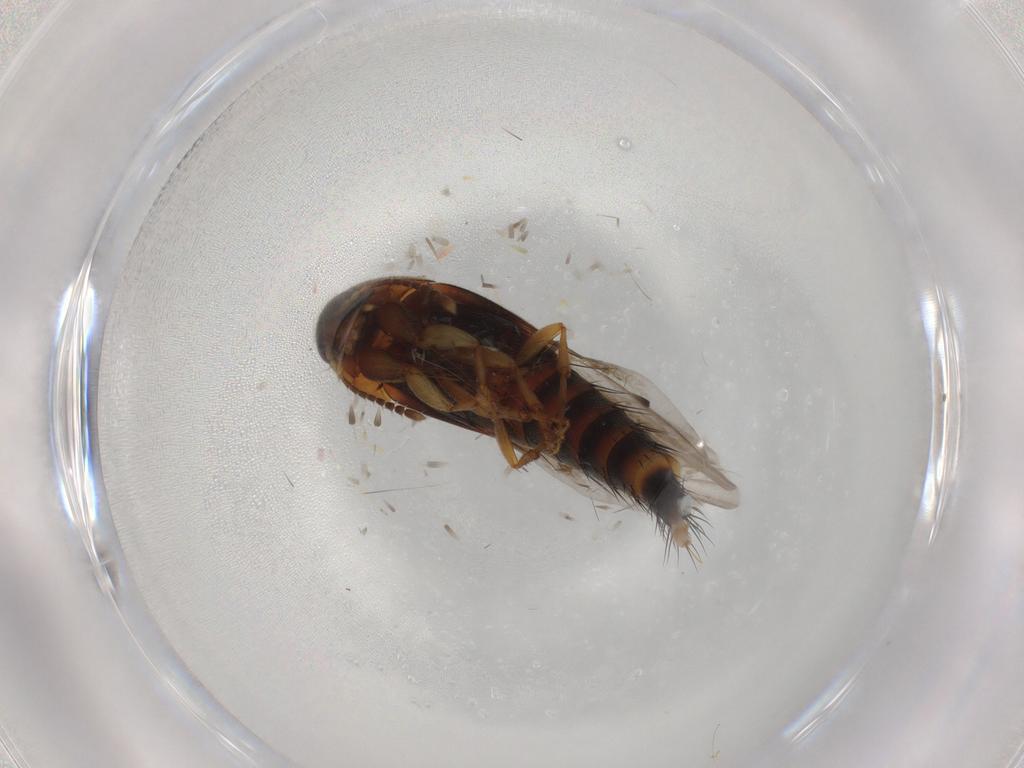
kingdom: Animalia
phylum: Arthropoda
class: Insecta
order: Coleoptera
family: Staphylinidae
